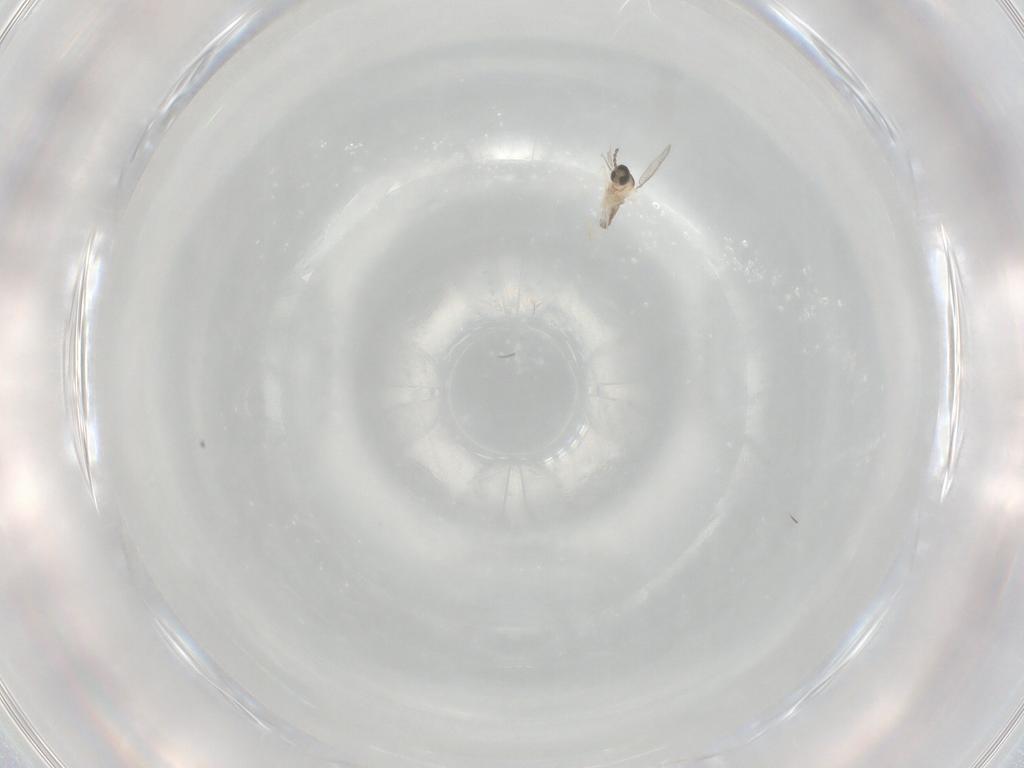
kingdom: Animalia
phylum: Arthropoda
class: Insecta
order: Diptera
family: Cecidomyiidae
